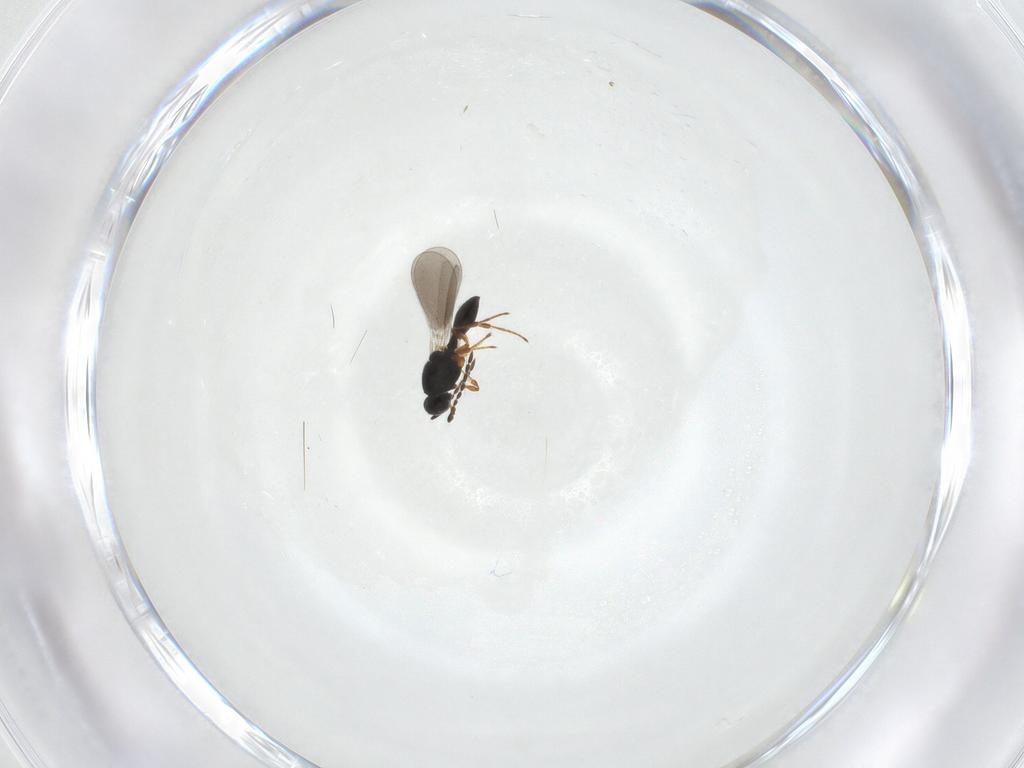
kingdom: Animalia
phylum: Arthropoda
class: Insecta
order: Hymenoptera
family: Platygastridae
